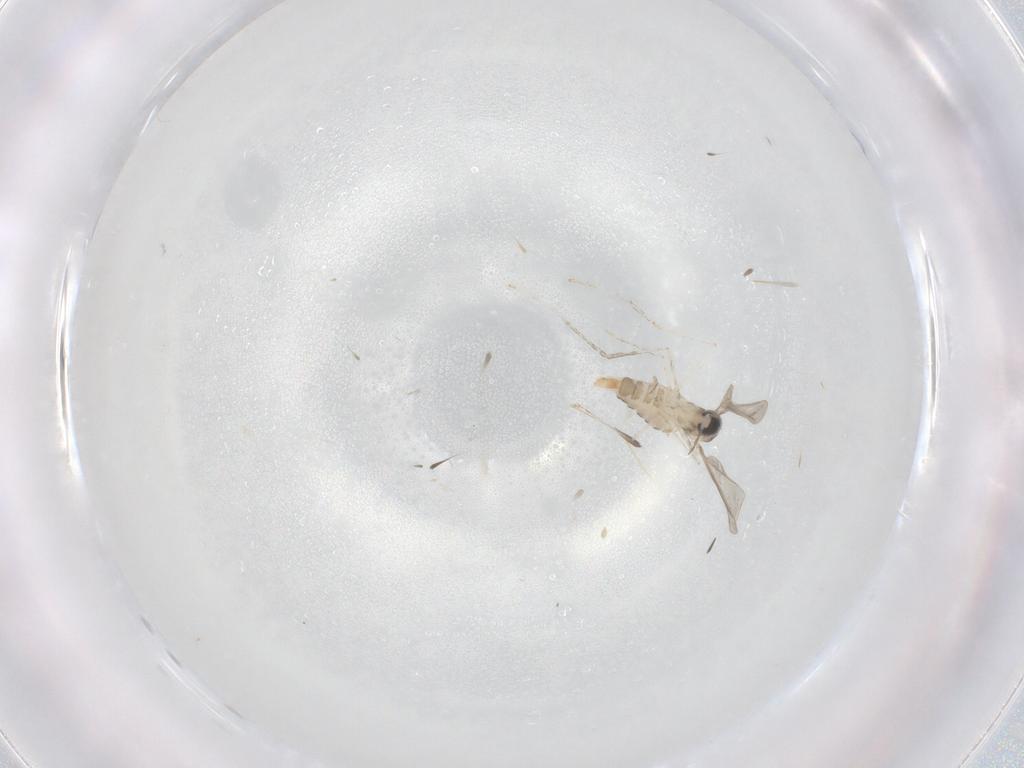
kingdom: Animalia
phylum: Arthropoda
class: Insecta
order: Diptera
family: Cecidomyiidae
